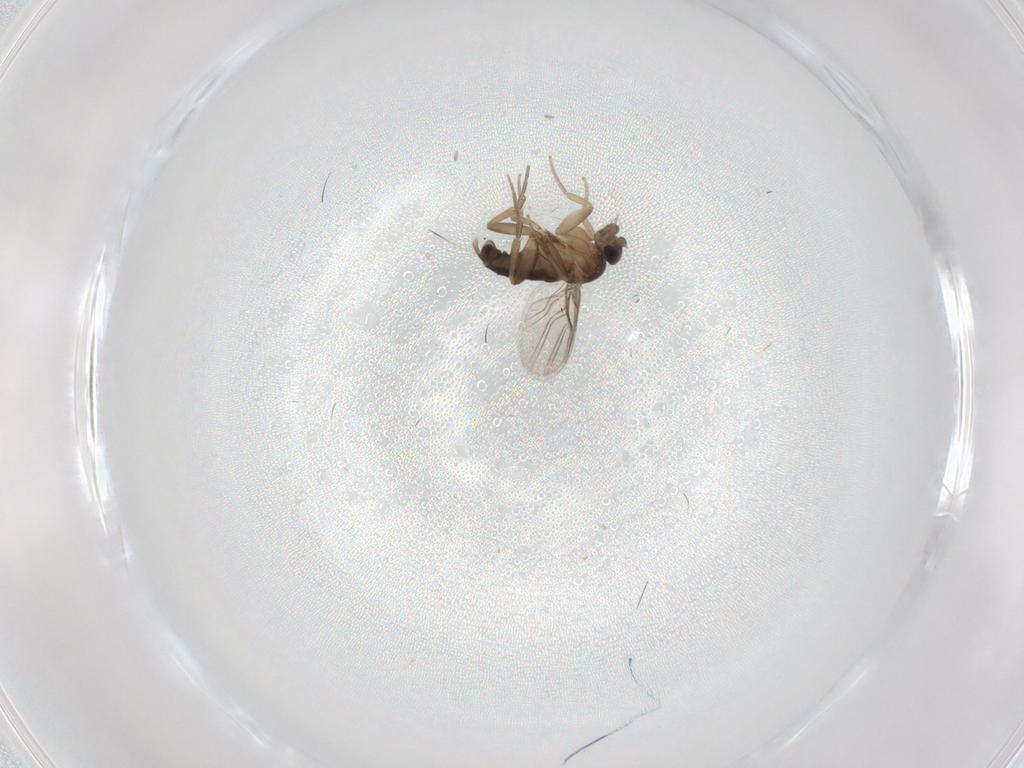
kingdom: Animalia
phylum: Arthropoda
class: Insecta
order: Diptera
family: Phoridae
